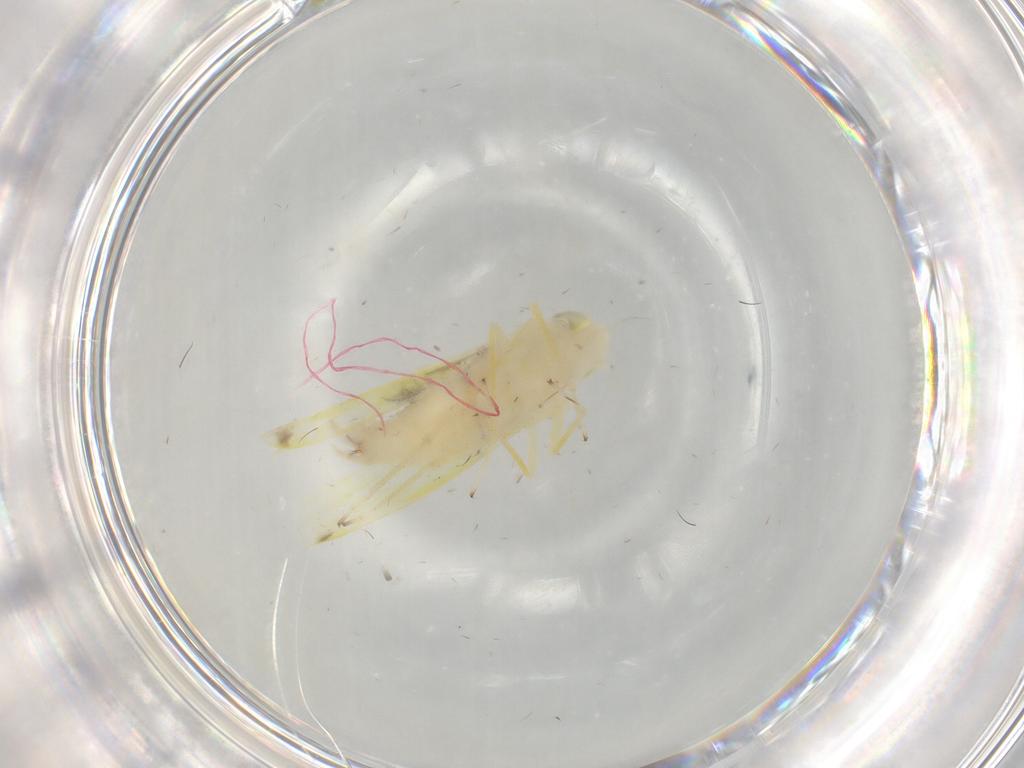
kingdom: Animalia
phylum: Arthropoda
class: Insecta
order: Hemiptera
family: Cicadellidae
